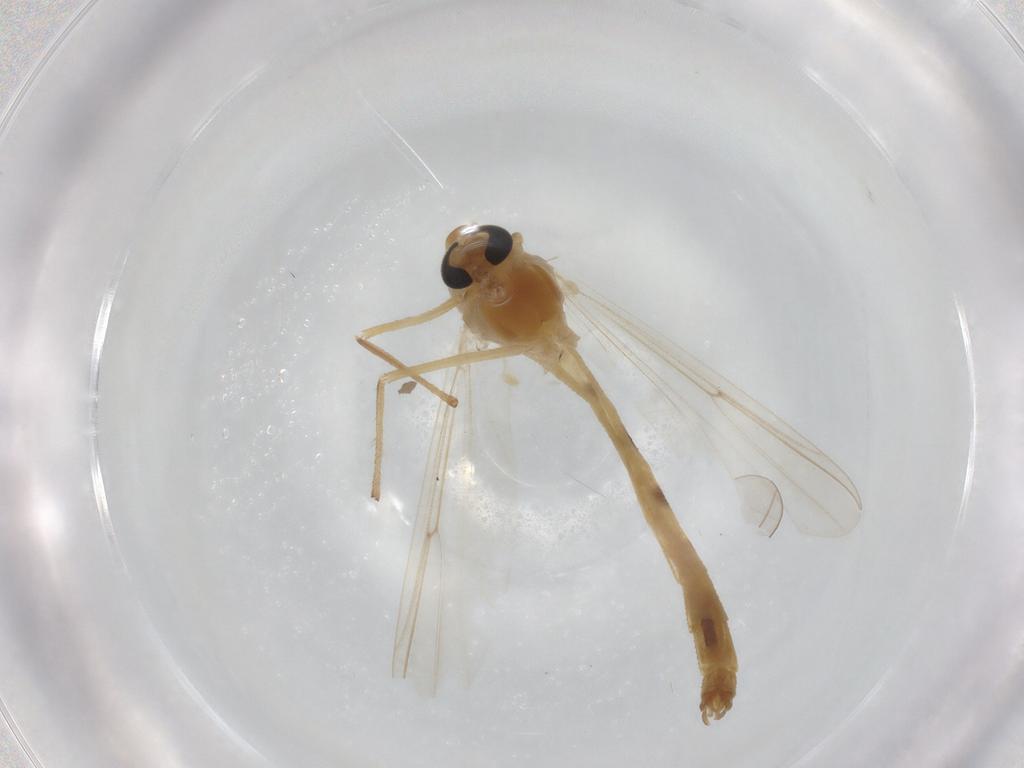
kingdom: Animalia
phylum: Arthropoda
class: Insecta
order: Diptera
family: Chironomidae
